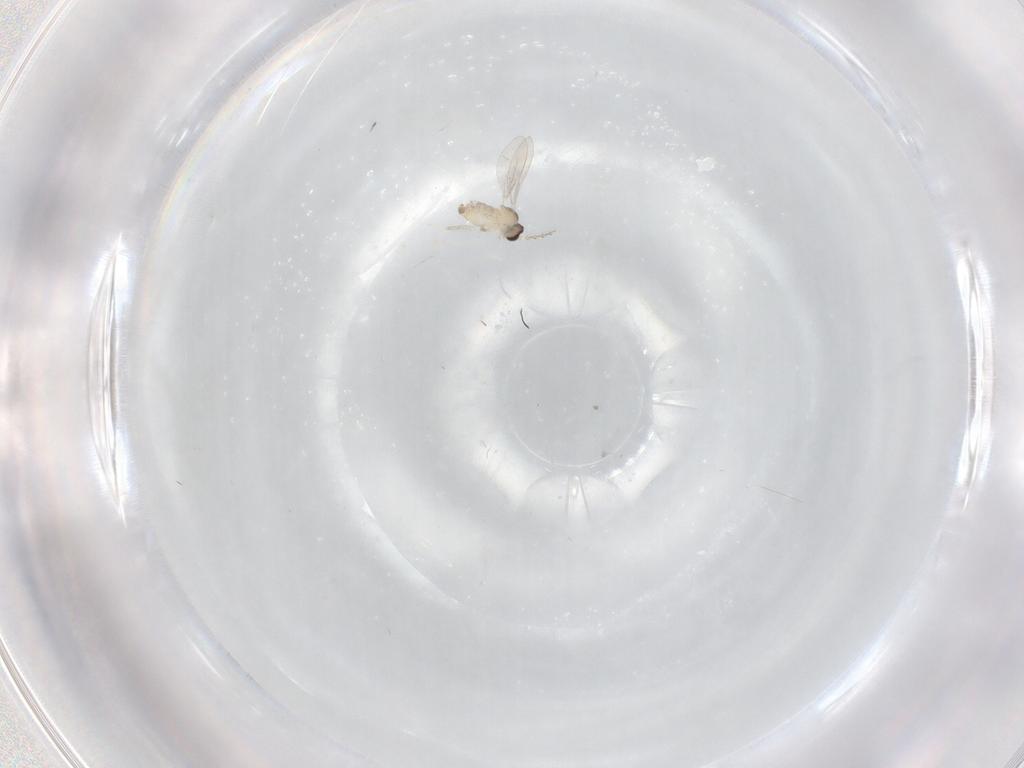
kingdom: Animalia
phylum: Arthropoda
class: Insecta
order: Diptera
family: Cecidomyiidae
